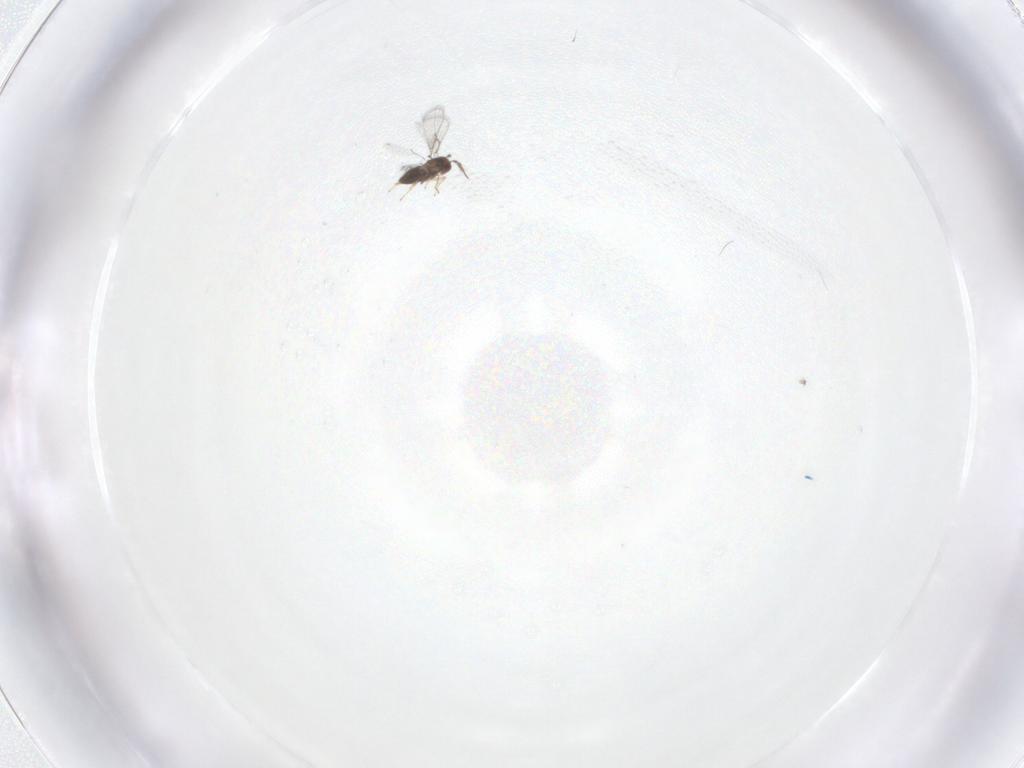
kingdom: Animalia
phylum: Arthropoda
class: Insecta
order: Hymenoptera
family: Trichogrammatidae
